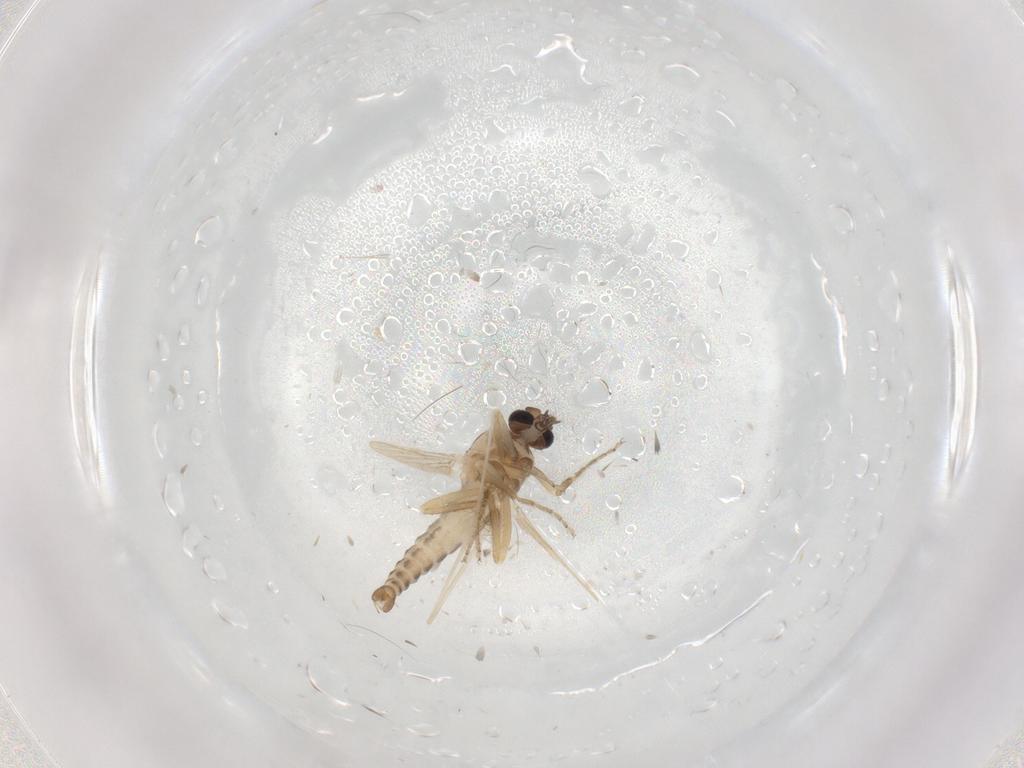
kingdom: Animalia
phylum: Arthropoda
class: Insecta
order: Diptera
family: Ceratopogonidae
